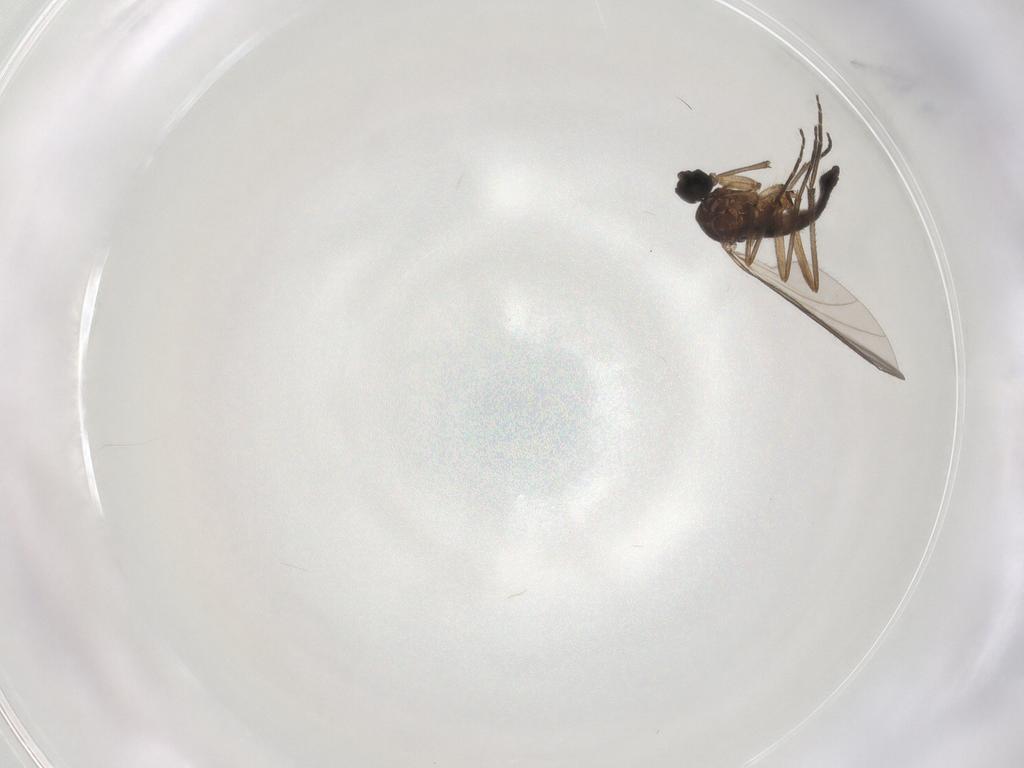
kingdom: Animalia
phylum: Arthropoda
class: Insecta
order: Diptera
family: Sciaridae
